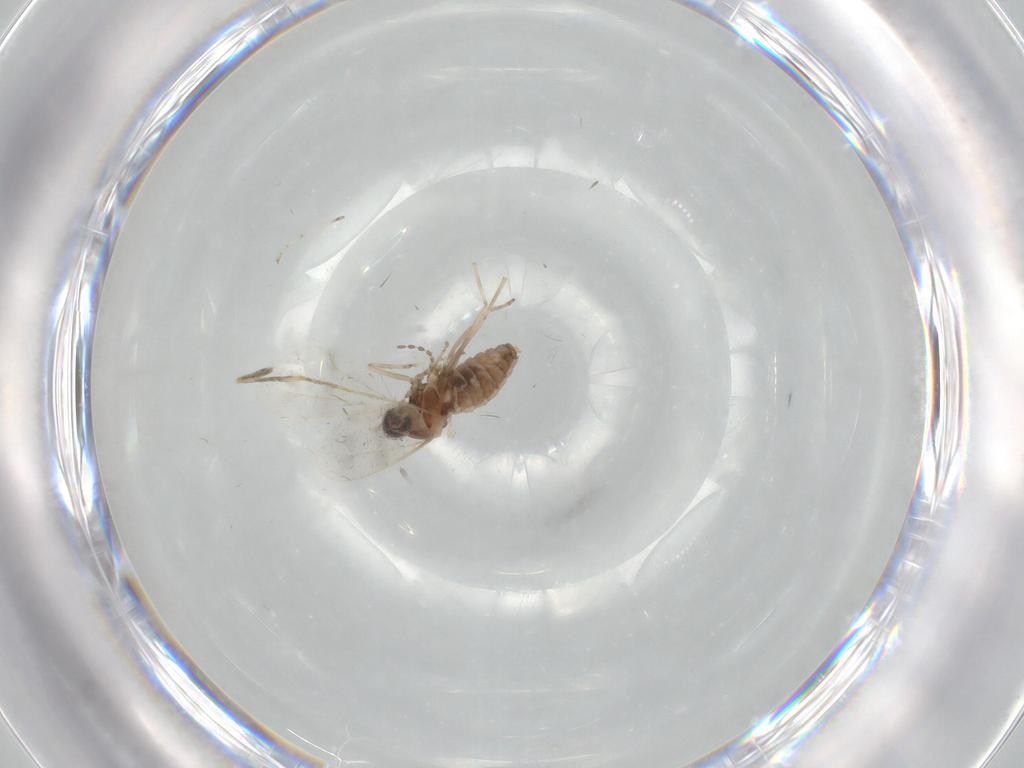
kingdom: Animalia
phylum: Arthropoda
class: Insecta
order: Diptera
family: Cecidomyiidae
